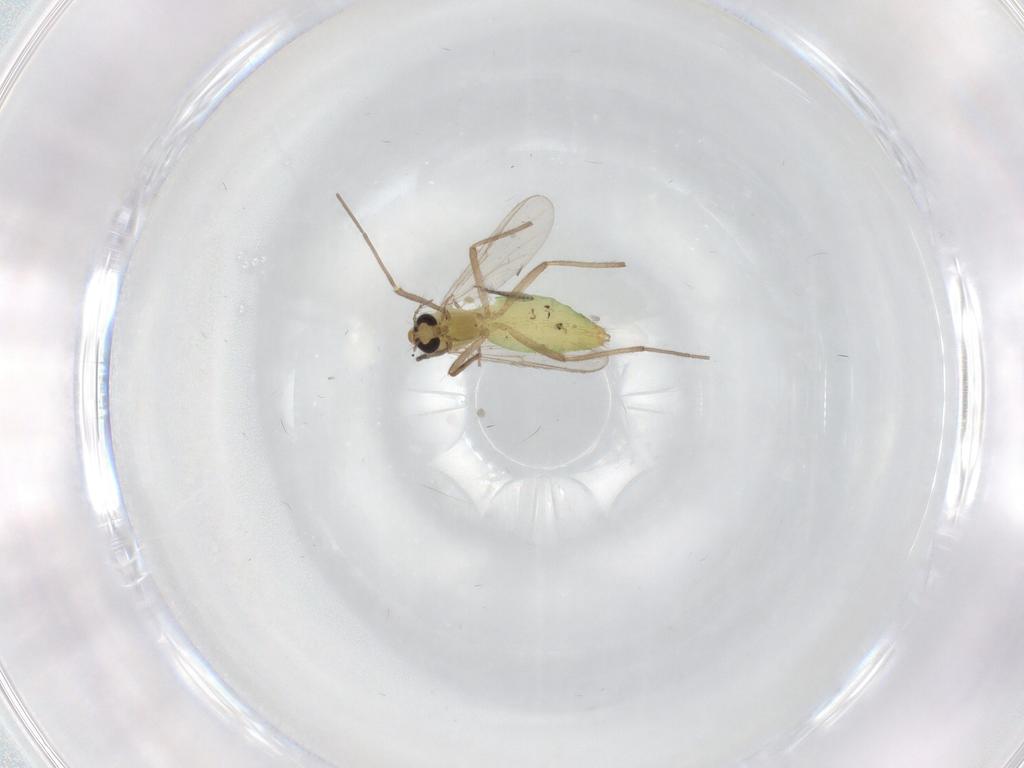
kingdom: Animalia
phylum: Arthropoda
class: Insecta
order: Diptera
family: Chironomidae
